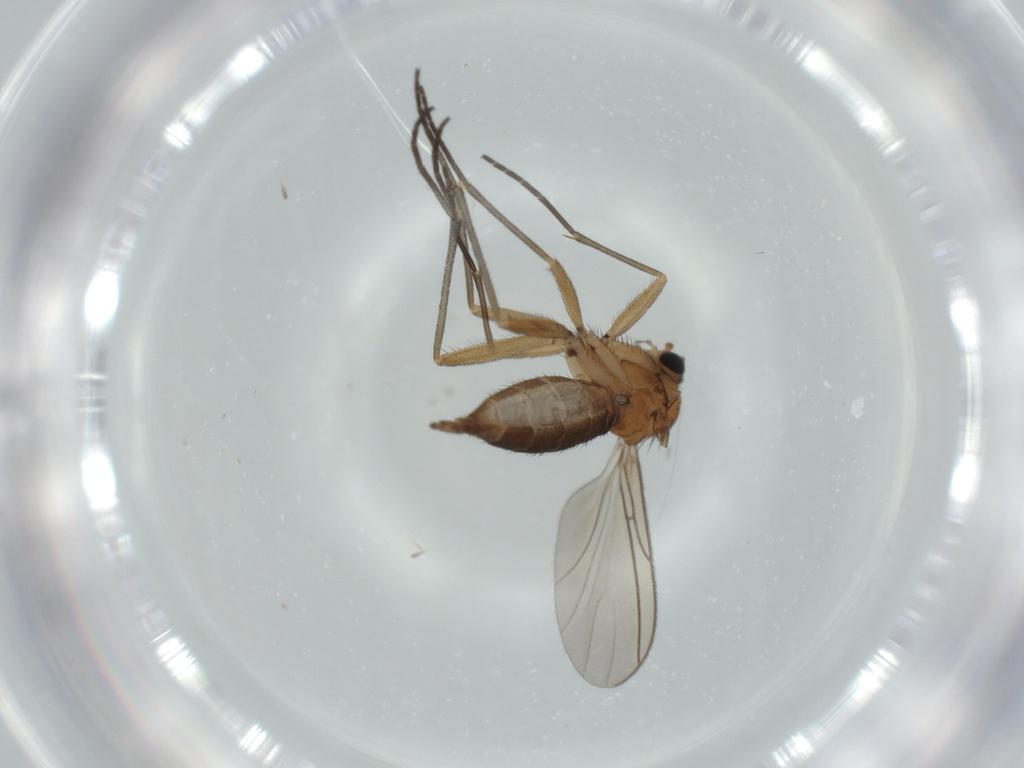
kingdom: Animalia
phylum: Arthropoda
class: Insecta
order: Diptera
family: Sciaridae
